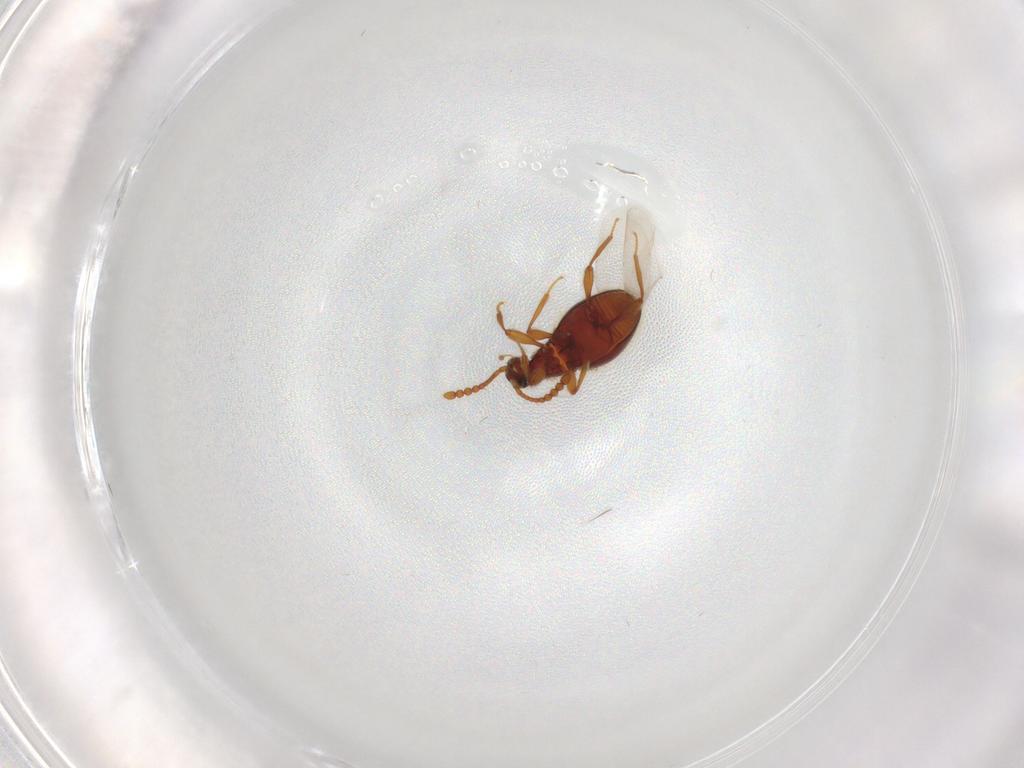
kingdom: Animalia
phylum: Arthropoda
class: Insecta
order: Coleoptera
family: Staphylinidae
